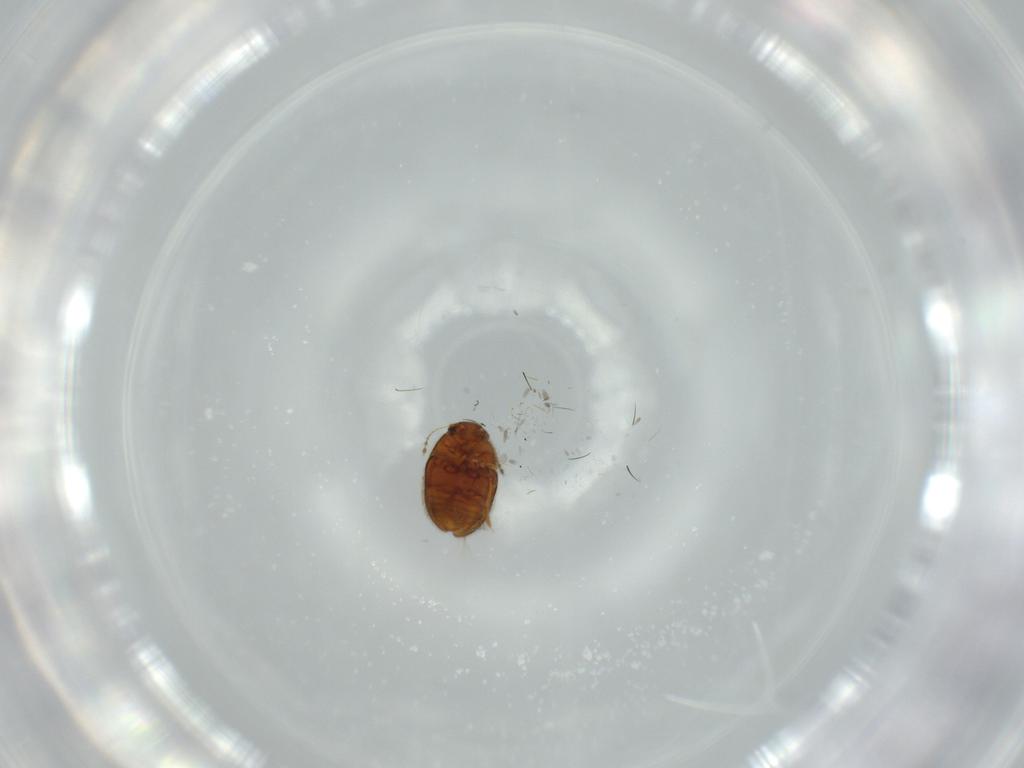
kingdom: Animalia
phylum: Arthropoda
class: Insecta
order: Coleoptera
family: Ptiliidae
